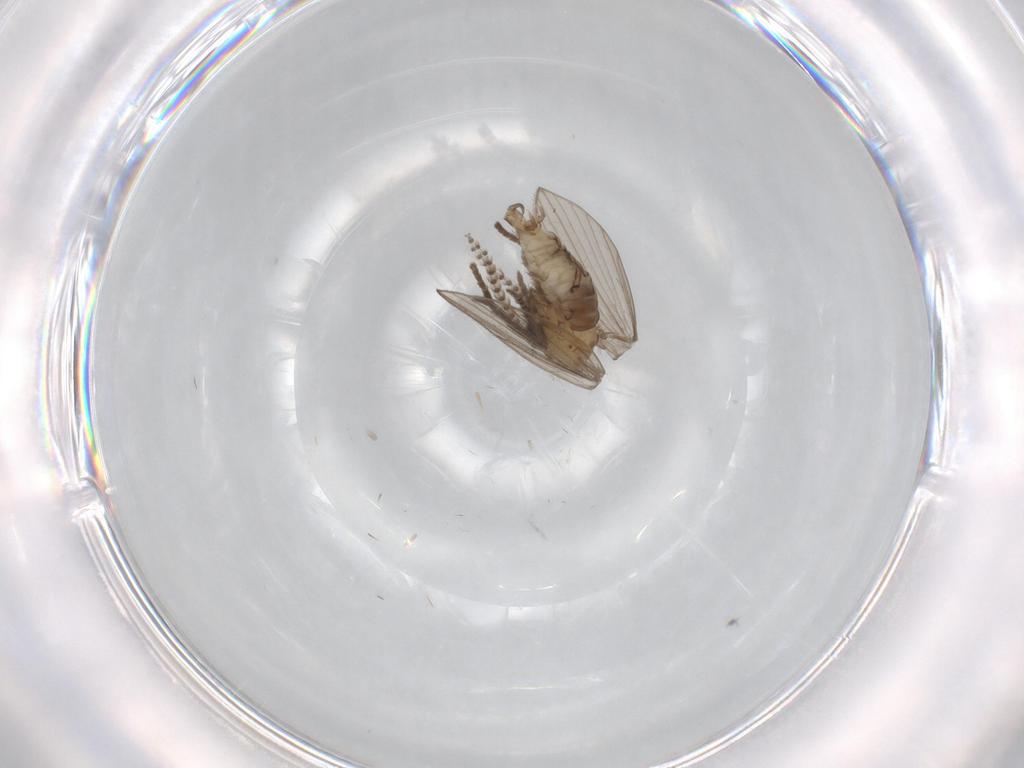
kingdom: Animalia
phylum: Arthropoda
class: Insecta
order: Diptera
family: Psychodidae
